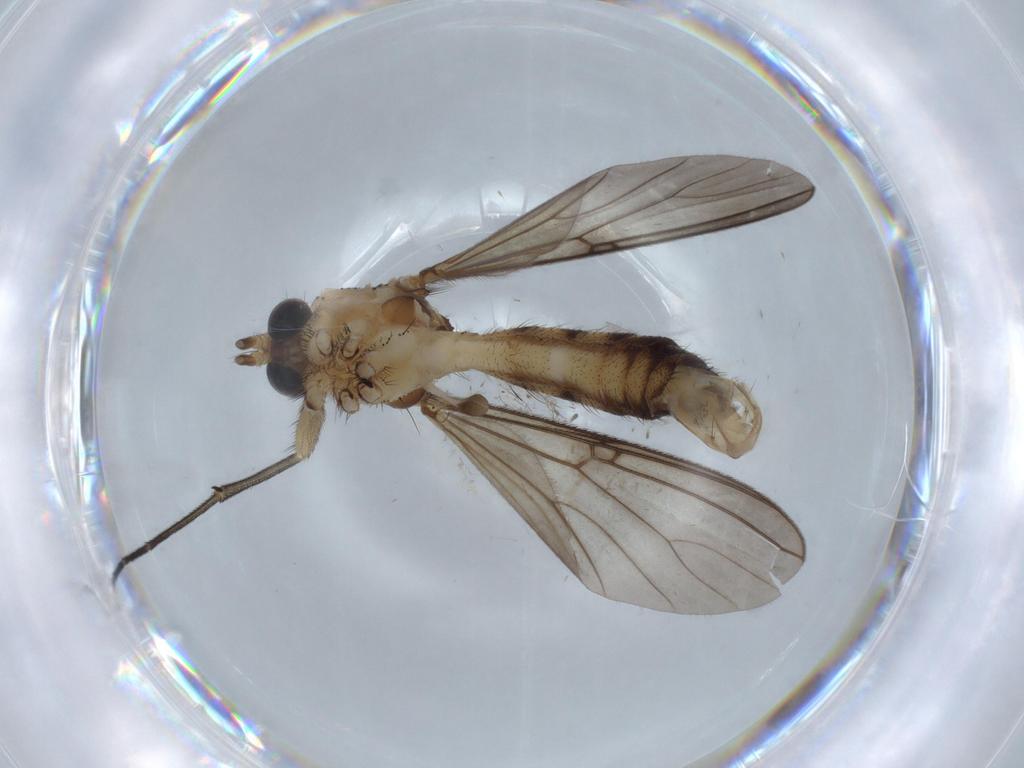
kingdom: Animalia
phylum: Arthropoda
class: Insecta
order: Diptera
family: Mycetophilidae
